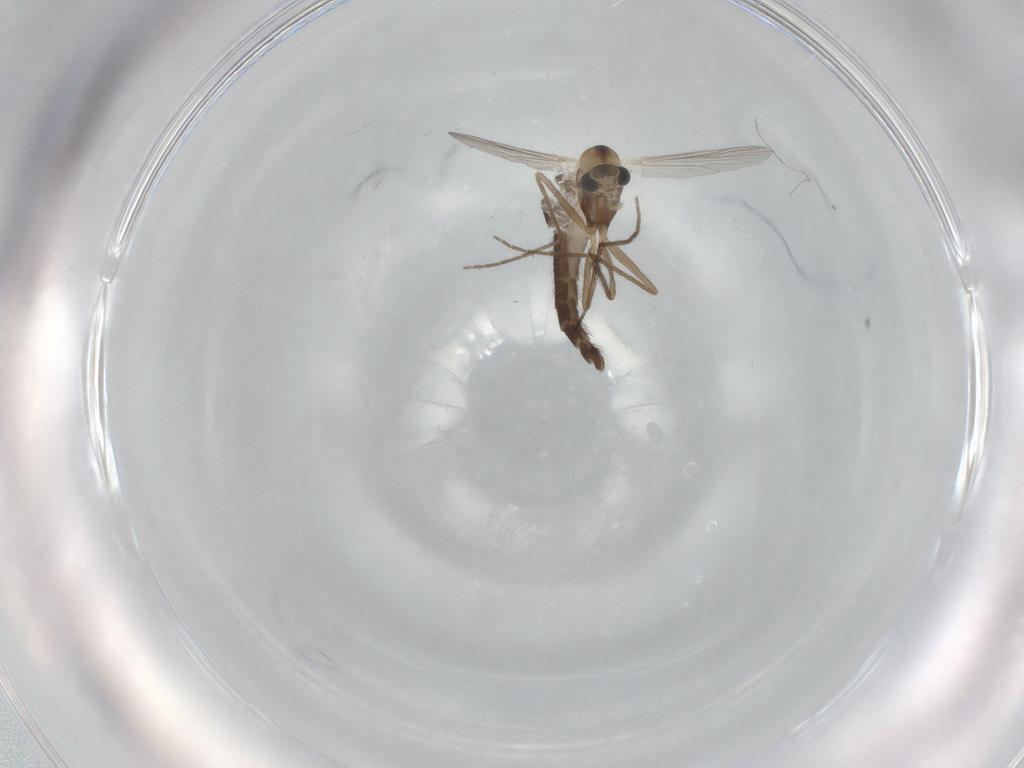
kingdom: Animalia
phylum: Arthropoda
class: Insecta
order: Diptera
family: Chironomidae
